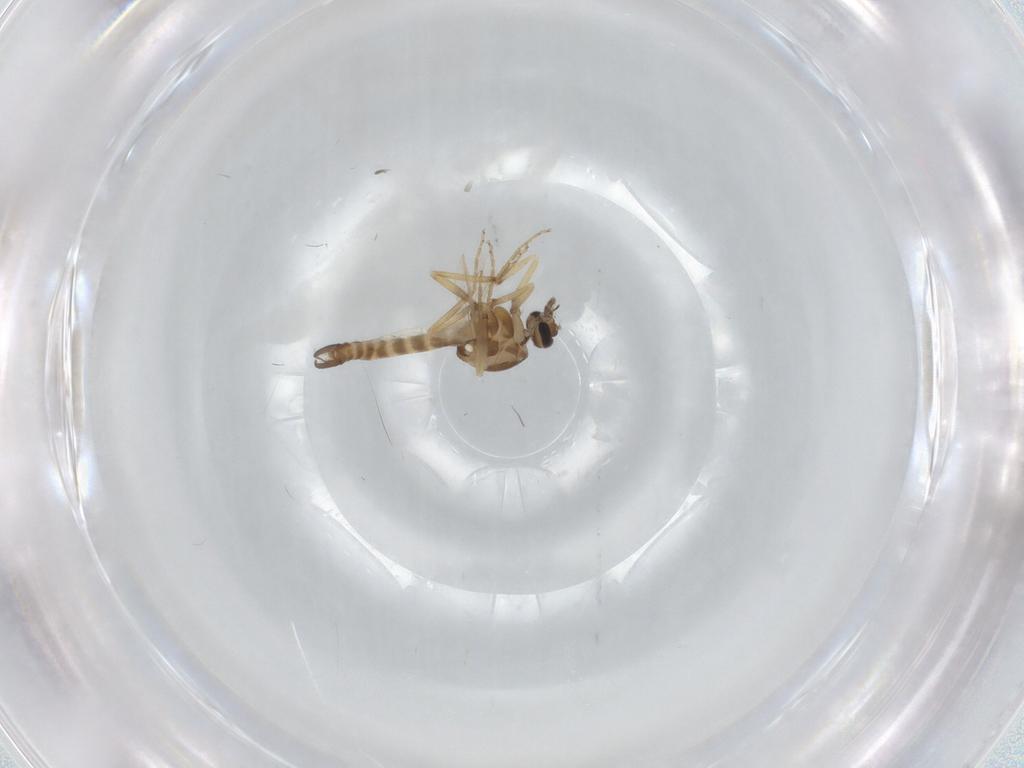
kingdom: Animalia
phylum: Arthropoda
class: Insecta
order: Diptera
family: Ceratopogonidae
